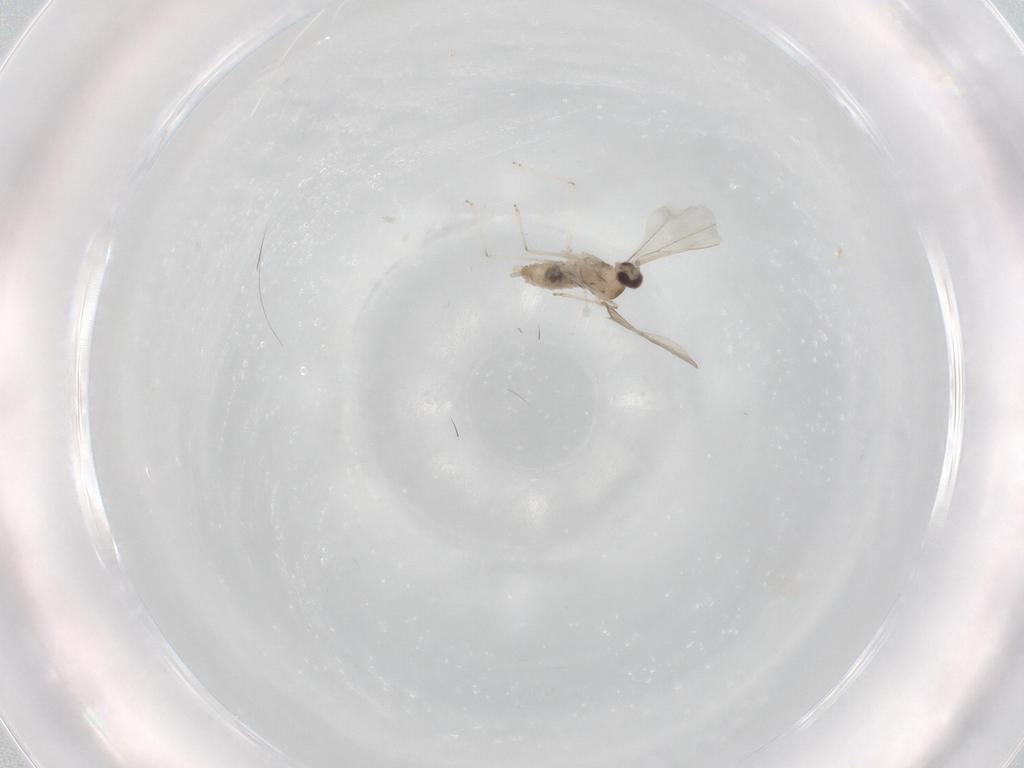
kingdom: Animalia
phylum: Arthropoda
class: Insecta
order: Diptera
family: Cecidomyiidae
